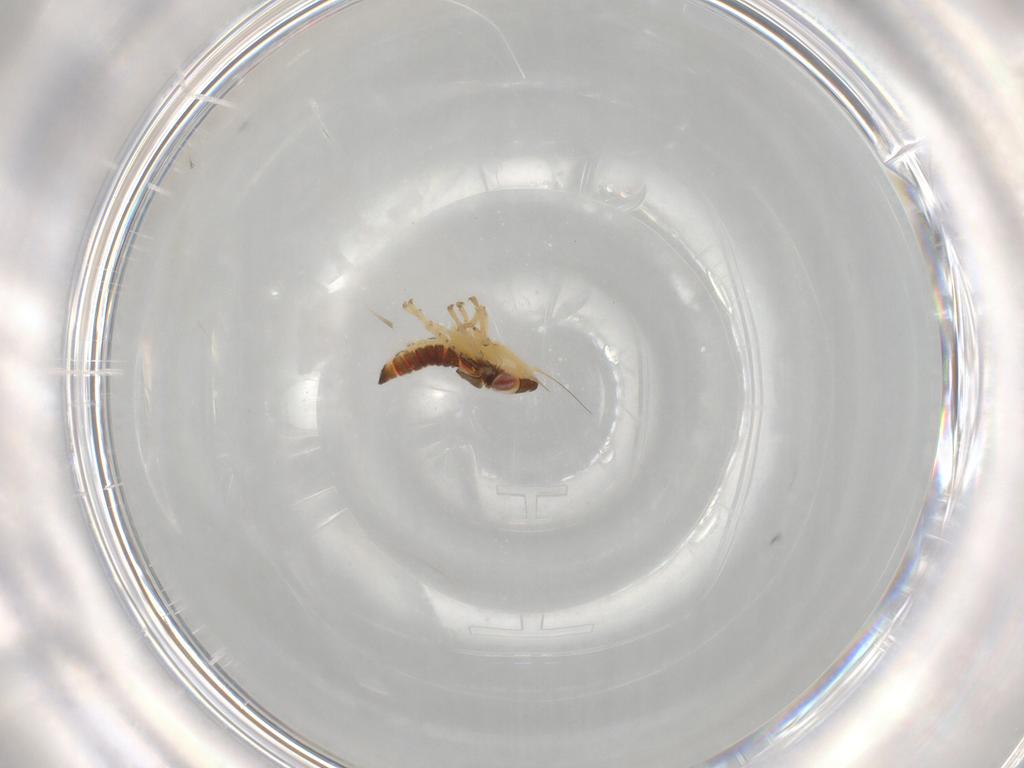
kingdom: Animalia
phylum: Arthropoda
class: Insecta
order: Hemiptera
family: Cicadellidae
